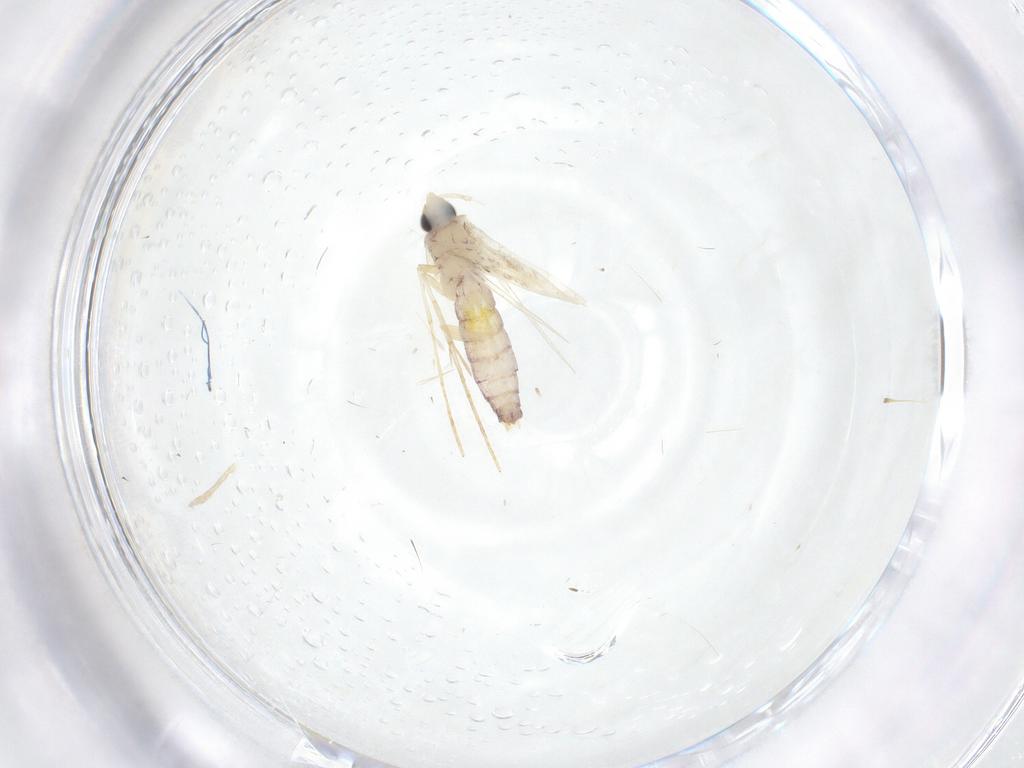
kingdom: Animalia
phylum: Arthropoda
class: Insecta
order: Lepidoptera
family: Tineidae
